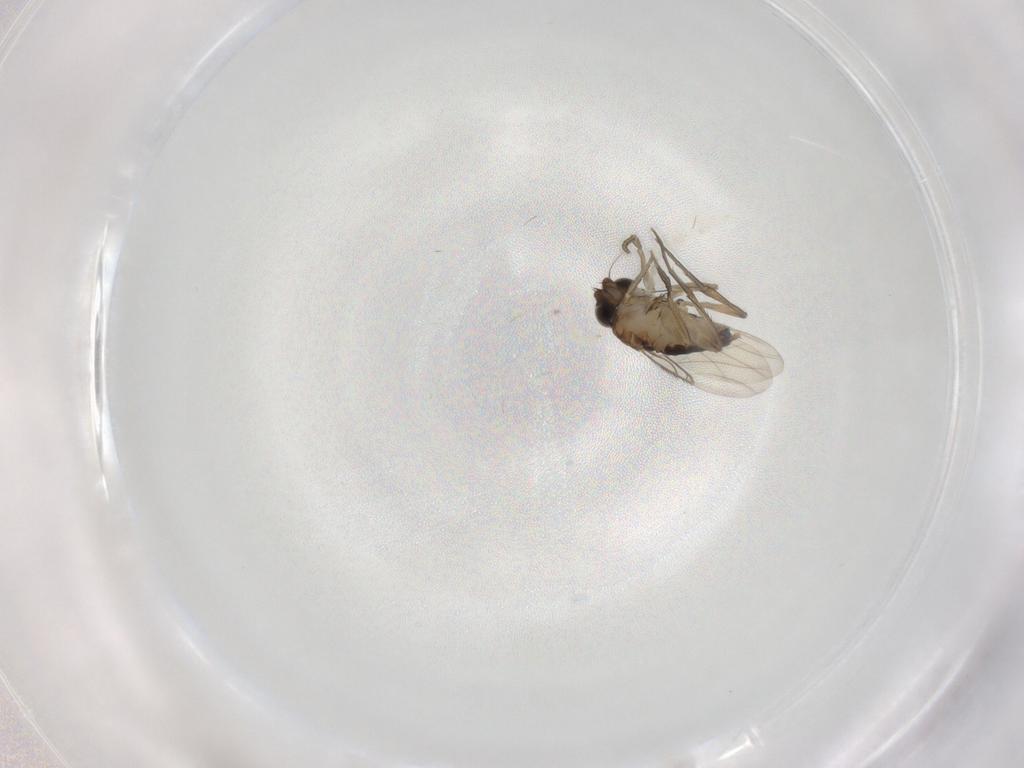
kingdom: Animalia
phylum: Arthropoda
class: Insecta
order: Diptera
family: Phoridae
